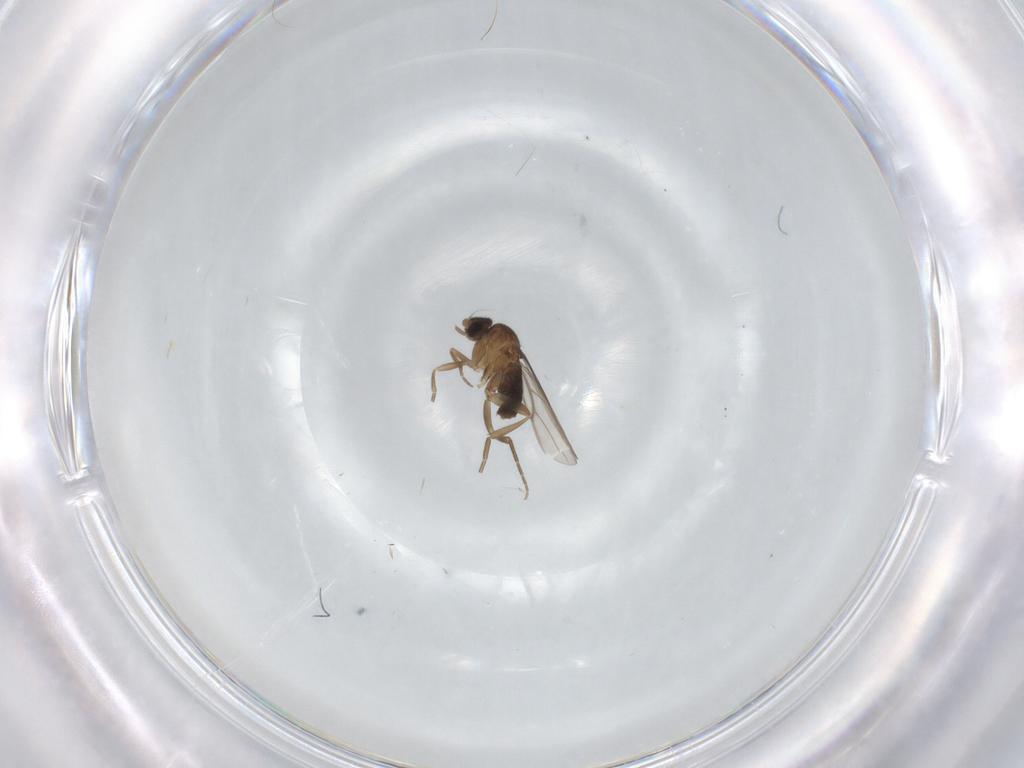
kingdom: Animalia
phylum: Arthropoda
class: Insecta
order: Diptera
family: Phoridae
